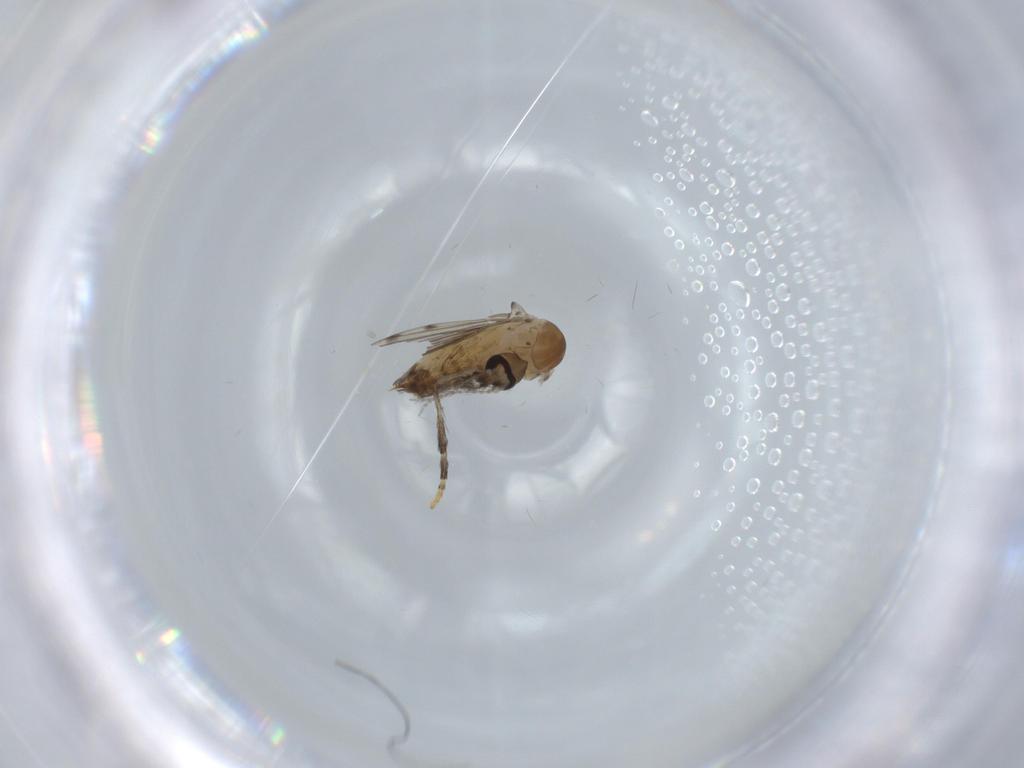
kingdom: Animalia
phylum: Arthropoda
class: Insecta
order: Diptera
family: Psychodidae
